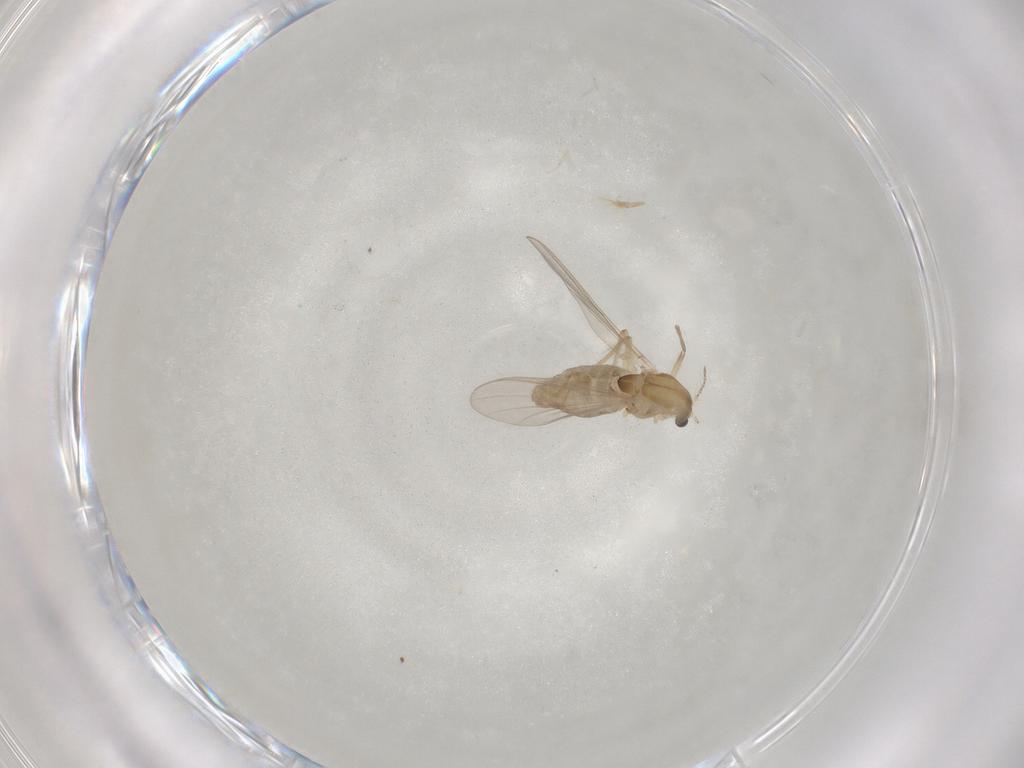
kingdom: Animalia
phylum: Arthropoda
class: Insecta
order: Diptera
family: Chironomidae
